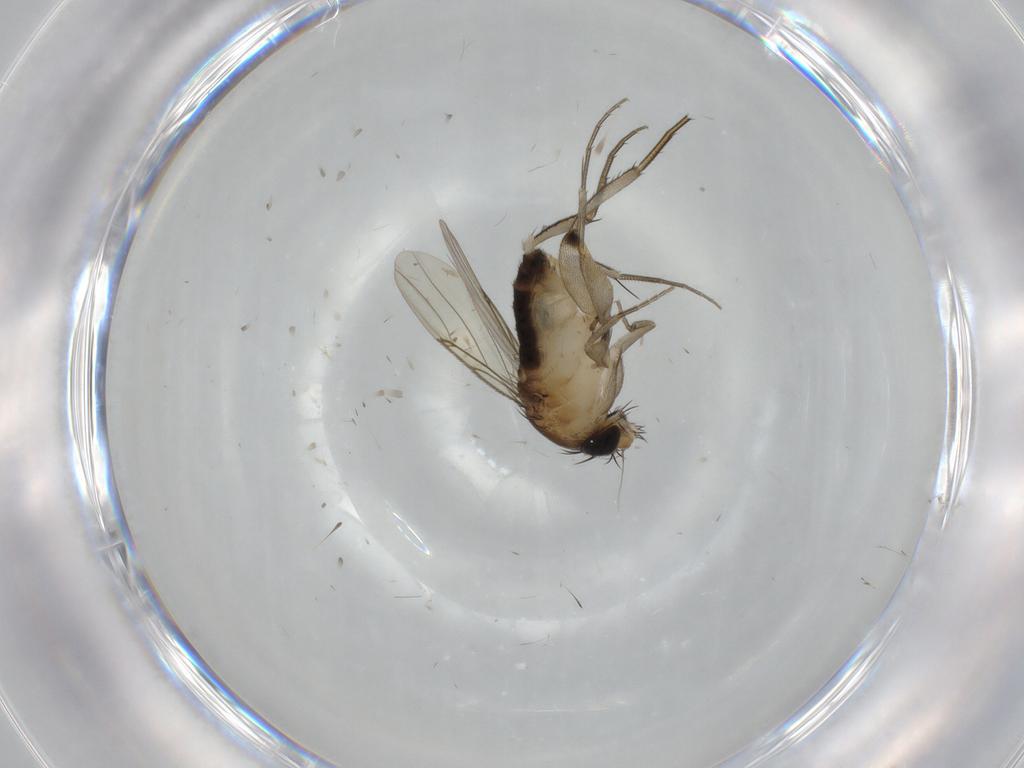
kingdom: Animalia
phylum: Arthropoda
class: Insecta
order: Diptera
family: Phoridae
